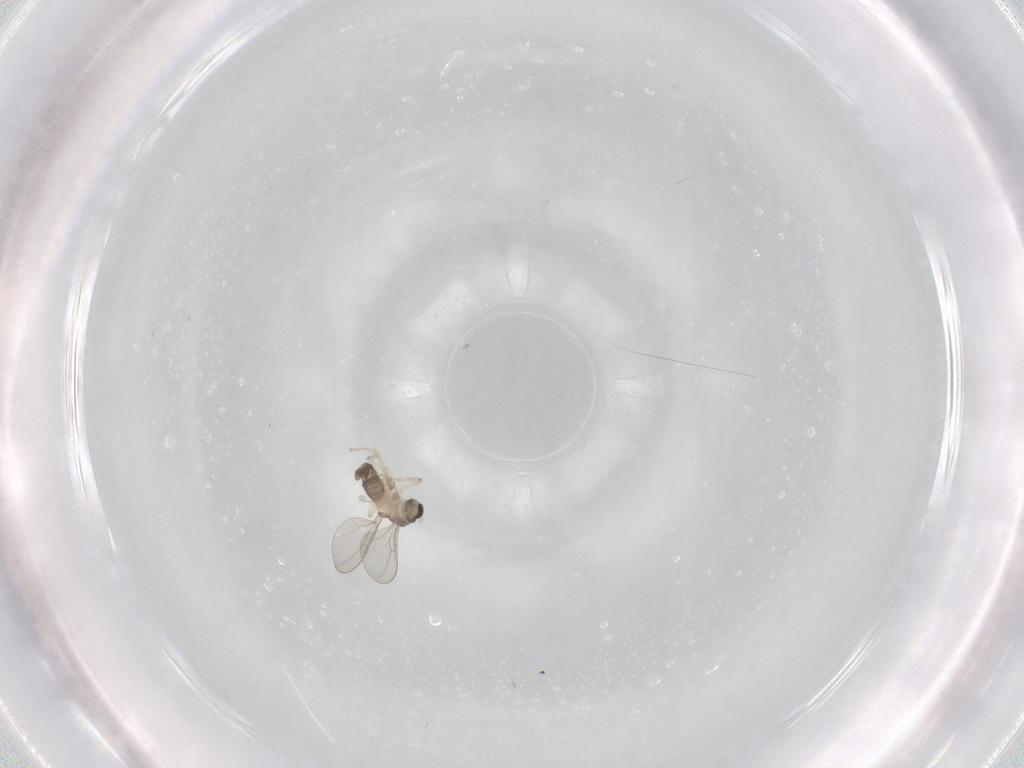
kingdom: Animalia
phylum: Arthropoda
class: Insecta
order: Diptera
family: Cecidomyiidae
